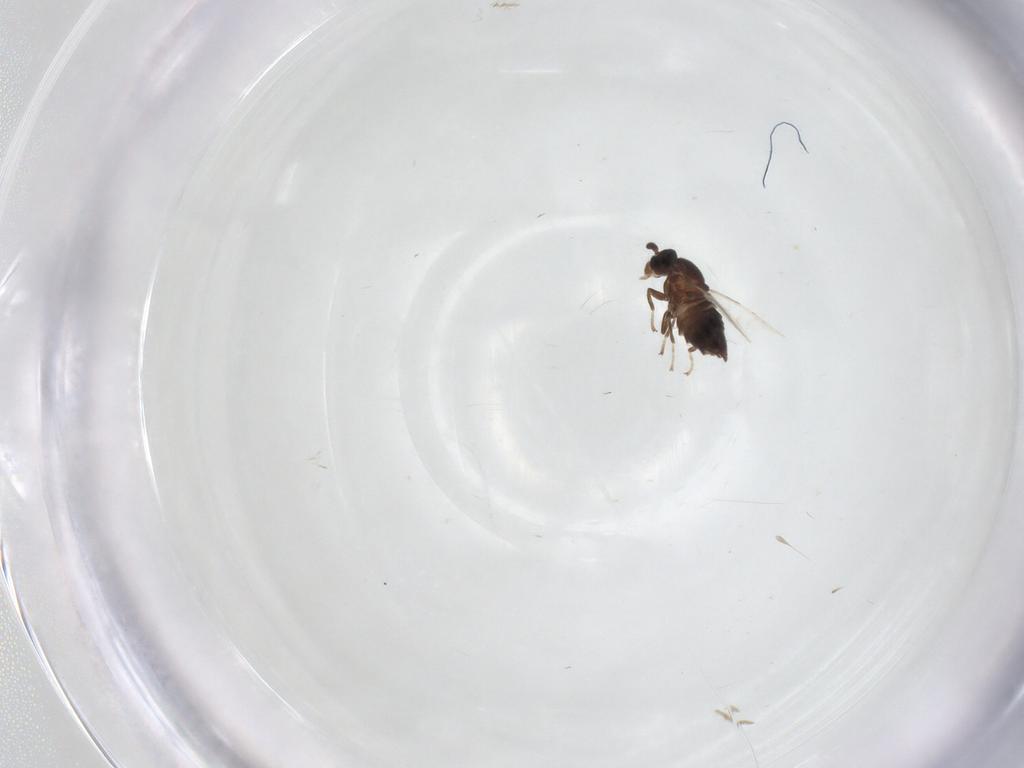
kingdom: Animalia
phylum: Arthropoda
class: Insecta
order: Diptera
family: Scatopsidae
